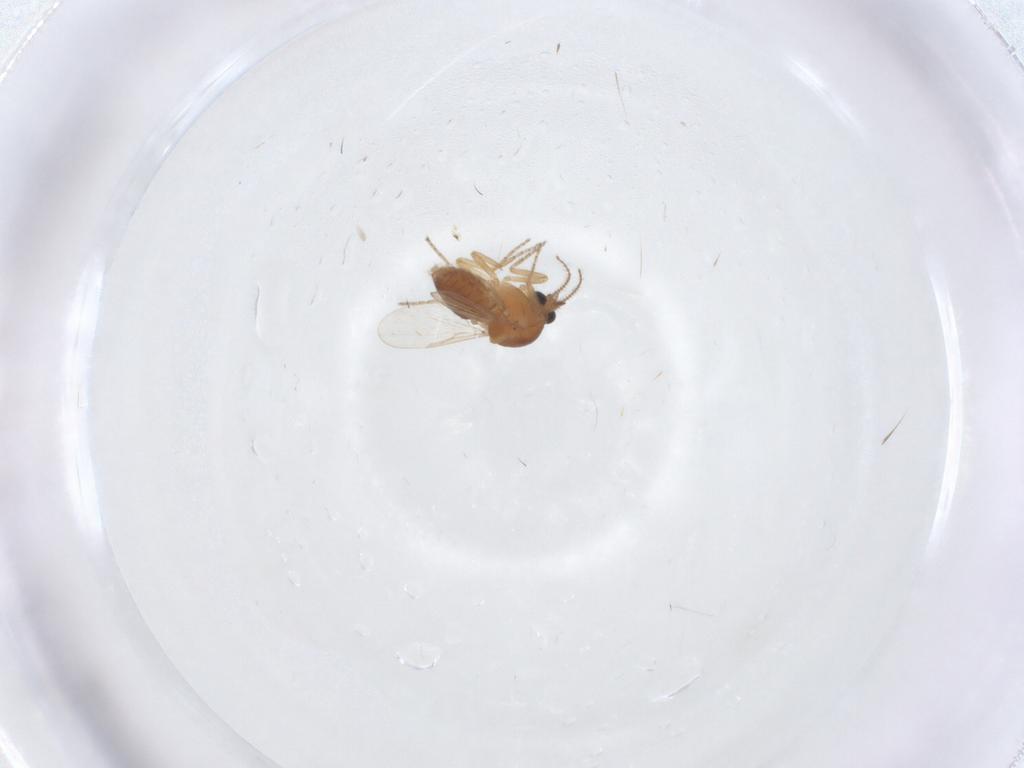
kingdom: Animalia
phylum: Arthropoda
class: Insecta
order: Diptera
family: Ceratopogonidae
